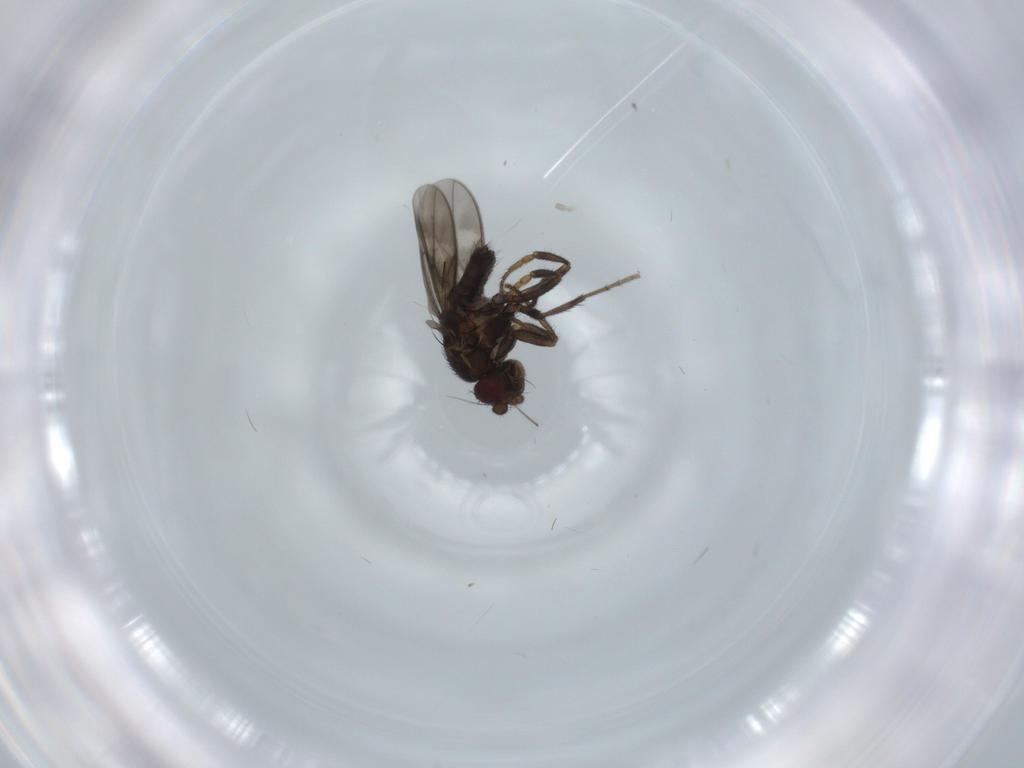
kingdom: Animalia
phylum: Arthropoda
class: Insecta
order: Diptera
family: Sphaeroceridae
